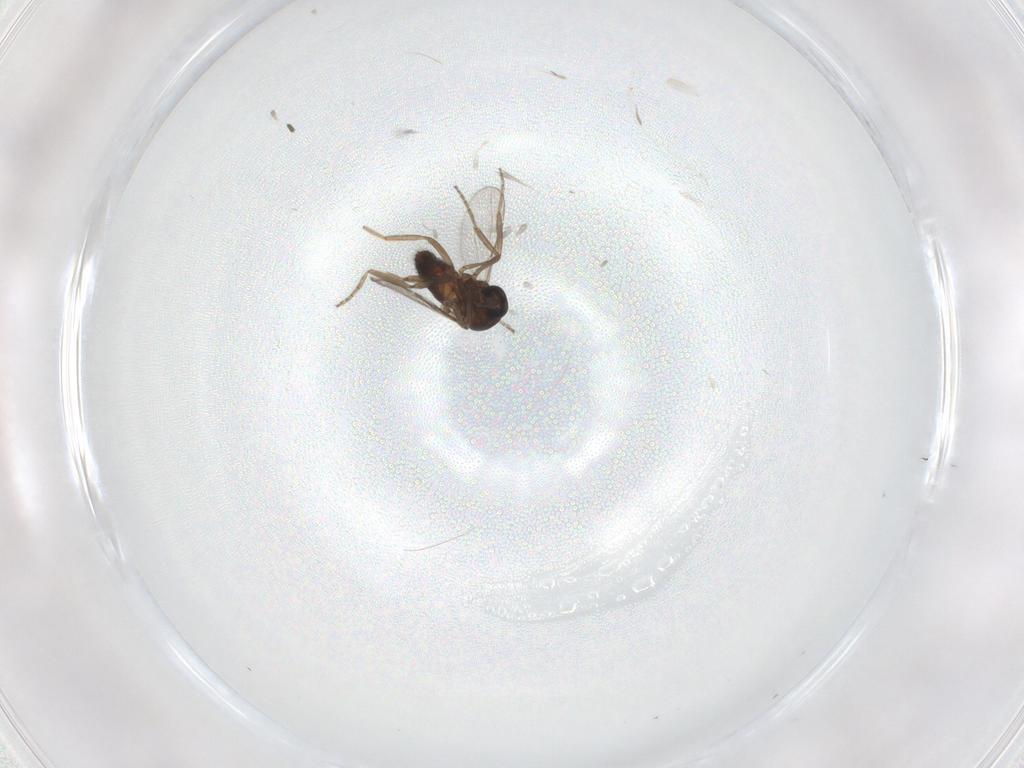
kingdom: Animalia
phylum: Arthropoda
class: Insecta
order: Diptera
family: Ceratopogonidae
